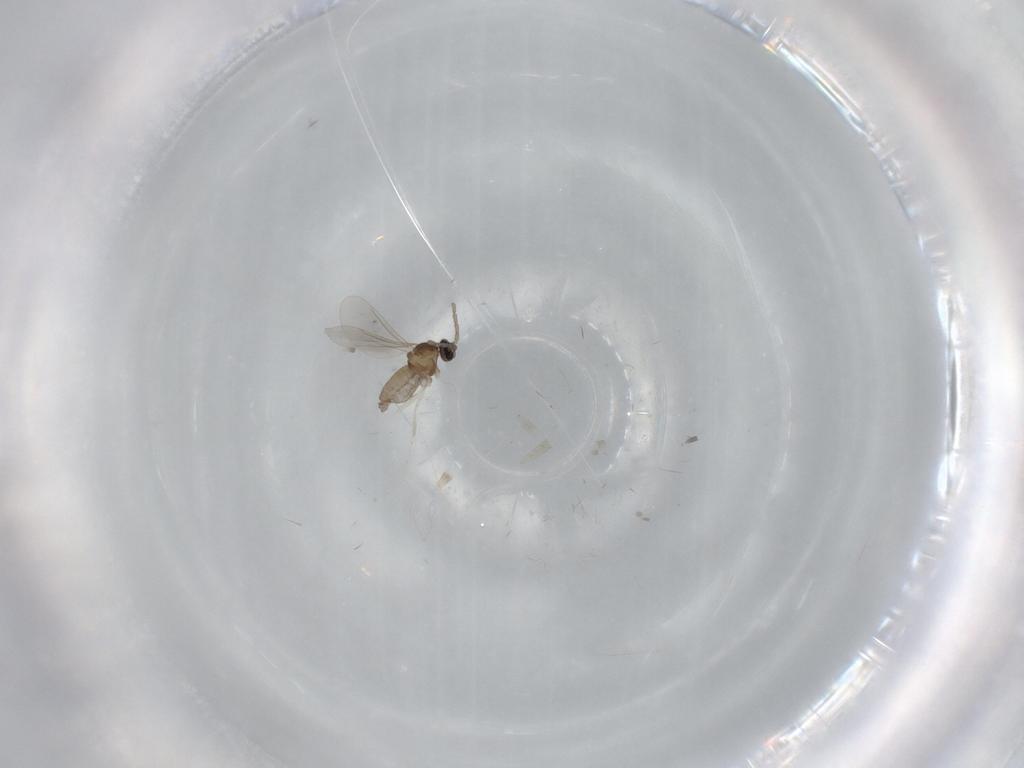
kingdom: Animalia
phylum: Arthropoda
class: Insecta
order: Diptera
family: Cecidomyiidae
